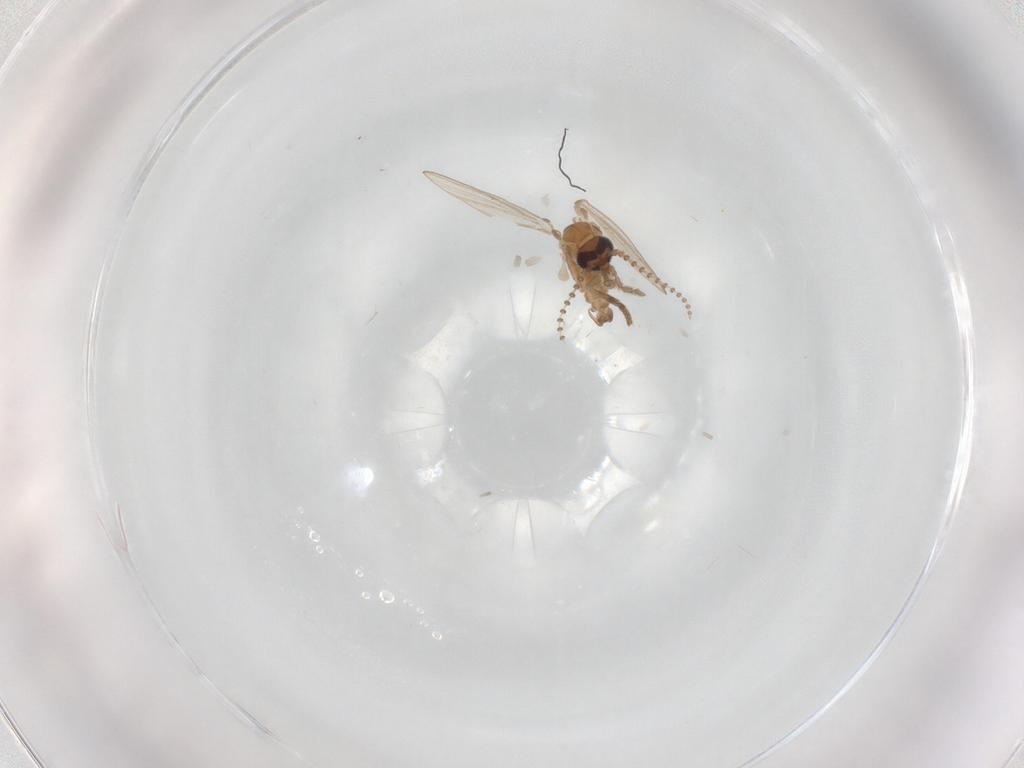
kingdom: Animalia
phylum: Arthropoda
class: Insecta
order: Diptera
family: Psychodidae
